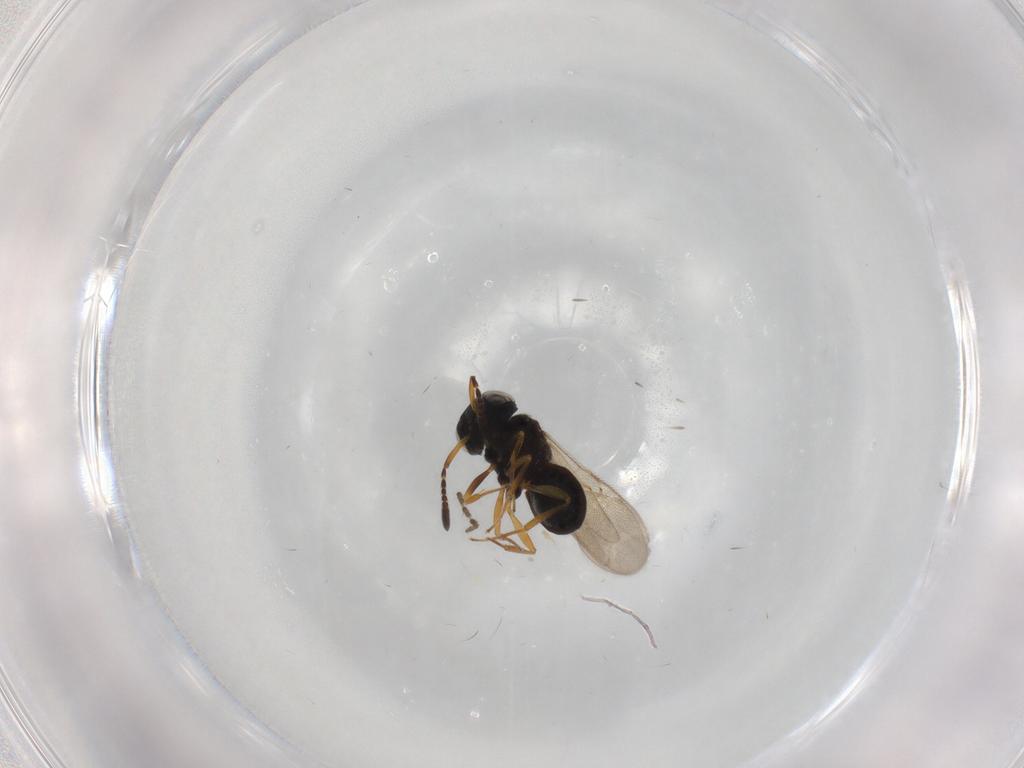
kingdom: Animalia
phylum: Arthropoda
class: Insecta
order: Hymenoptera
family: Scelionidae
